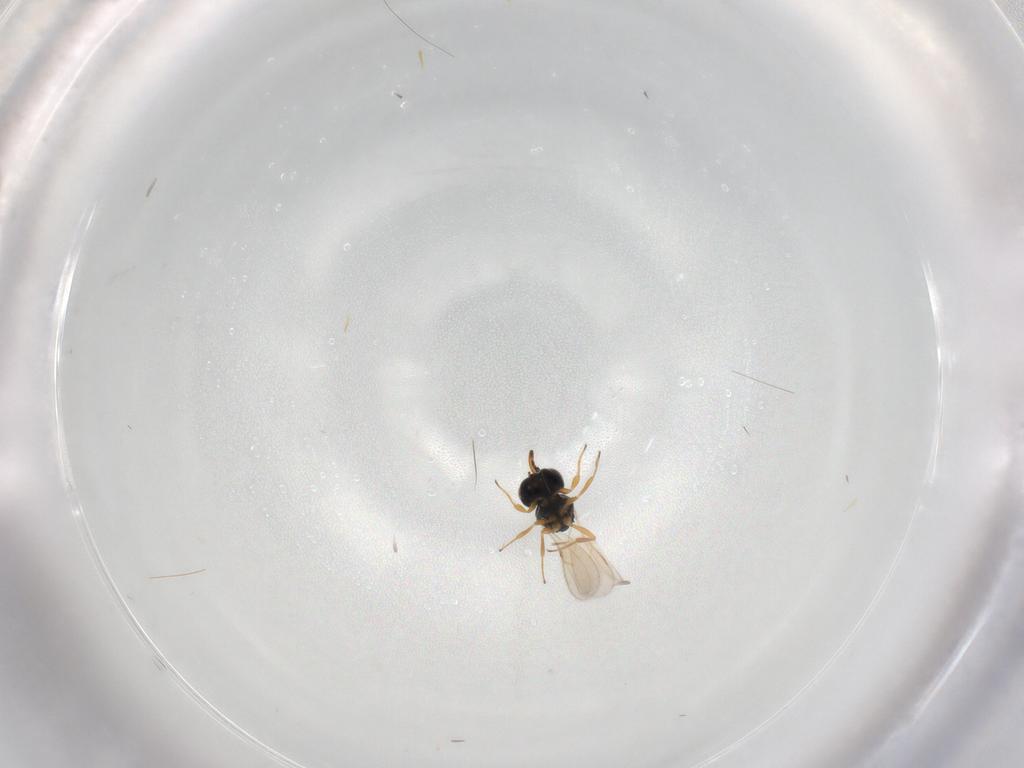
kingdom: Animalia
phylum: Arthropoda
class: Insecta
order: Hymenoptera
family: Scelionidae
